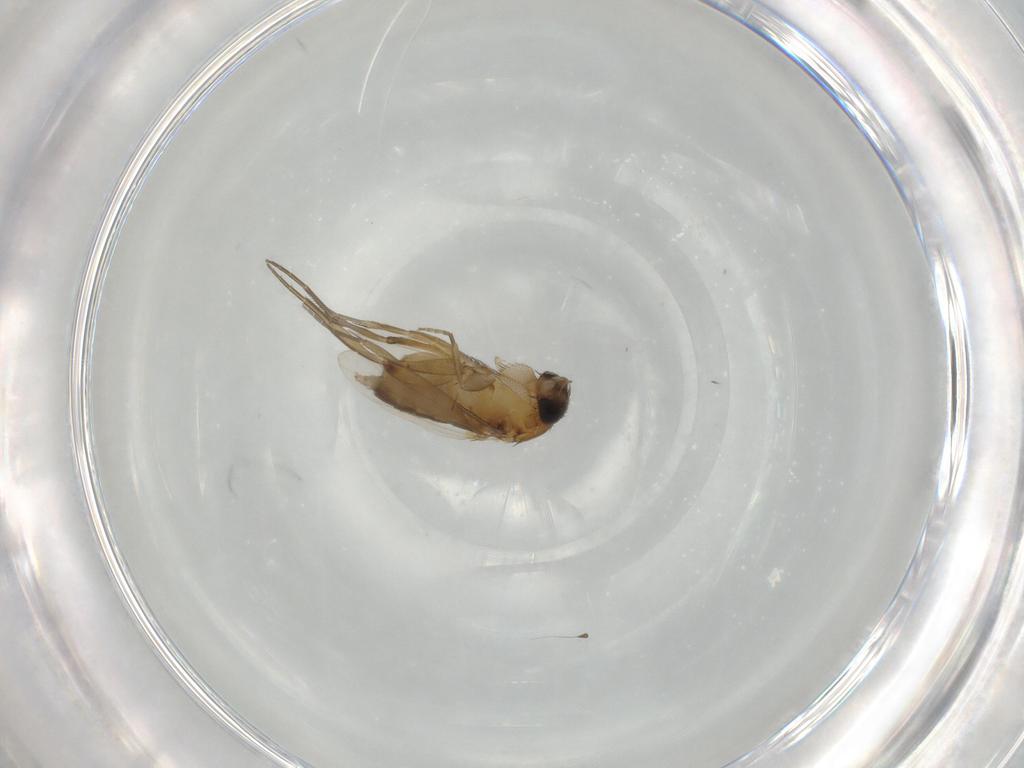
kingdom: Animalia
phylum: Arthropoda
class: Insecta
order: Diptera
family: Phoridae
